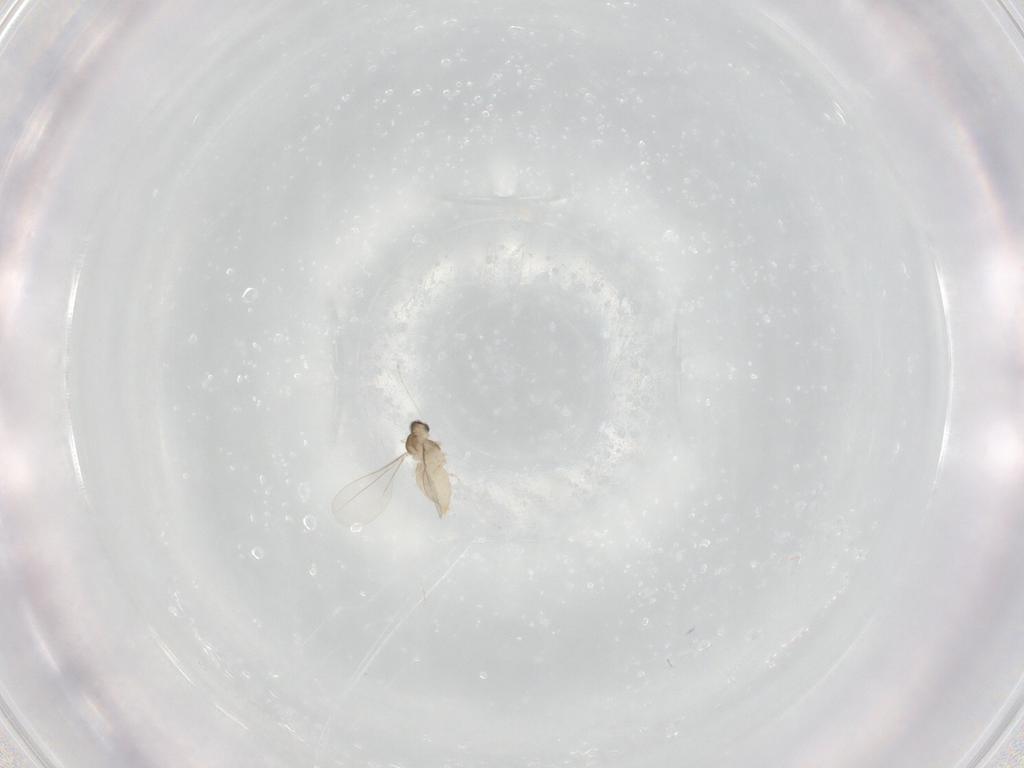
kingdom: Animalia
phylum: Arthropoda
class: Insecta
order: Diptera
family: Cecidomyiidae
